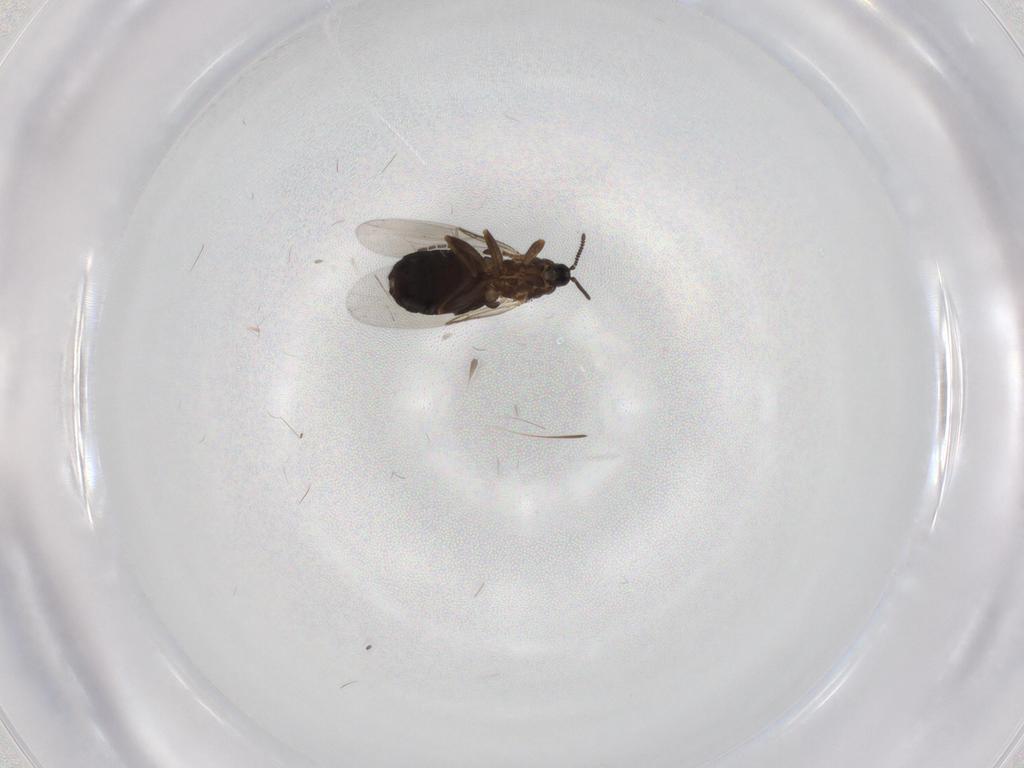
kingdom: Animalia
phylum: Arthropoda
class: Insecta
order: Diptera
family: Scatopsidae
